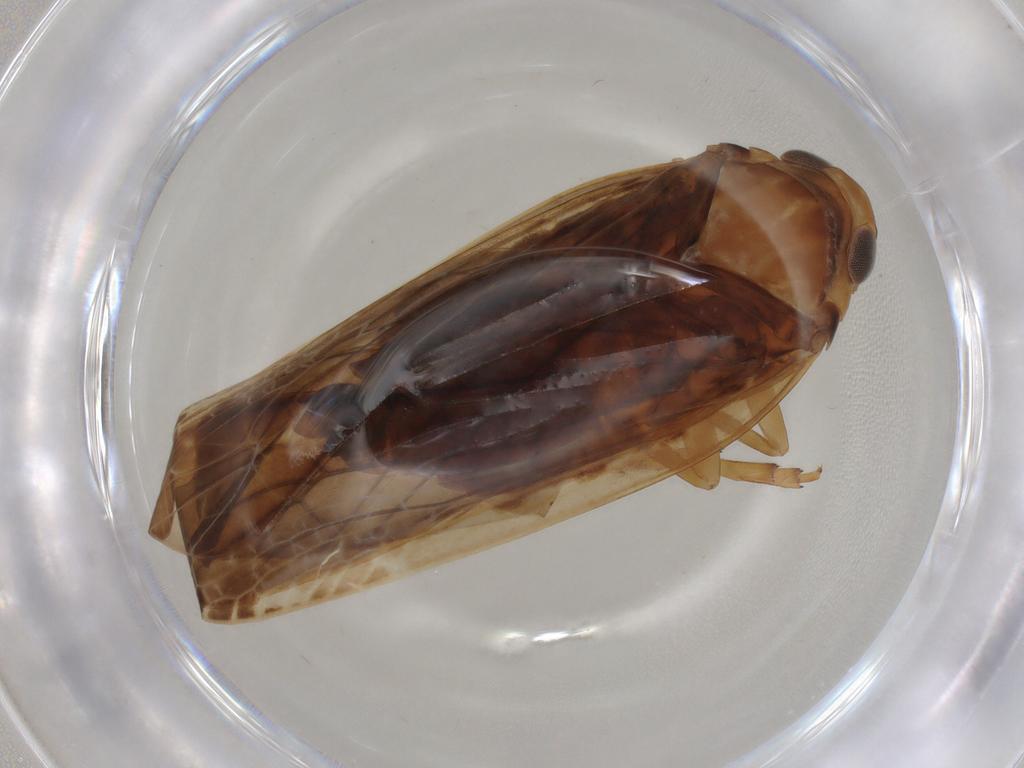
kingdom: Animalia
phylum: Arthropoda
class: Insecta
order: Hemiptera
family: Achilidae
